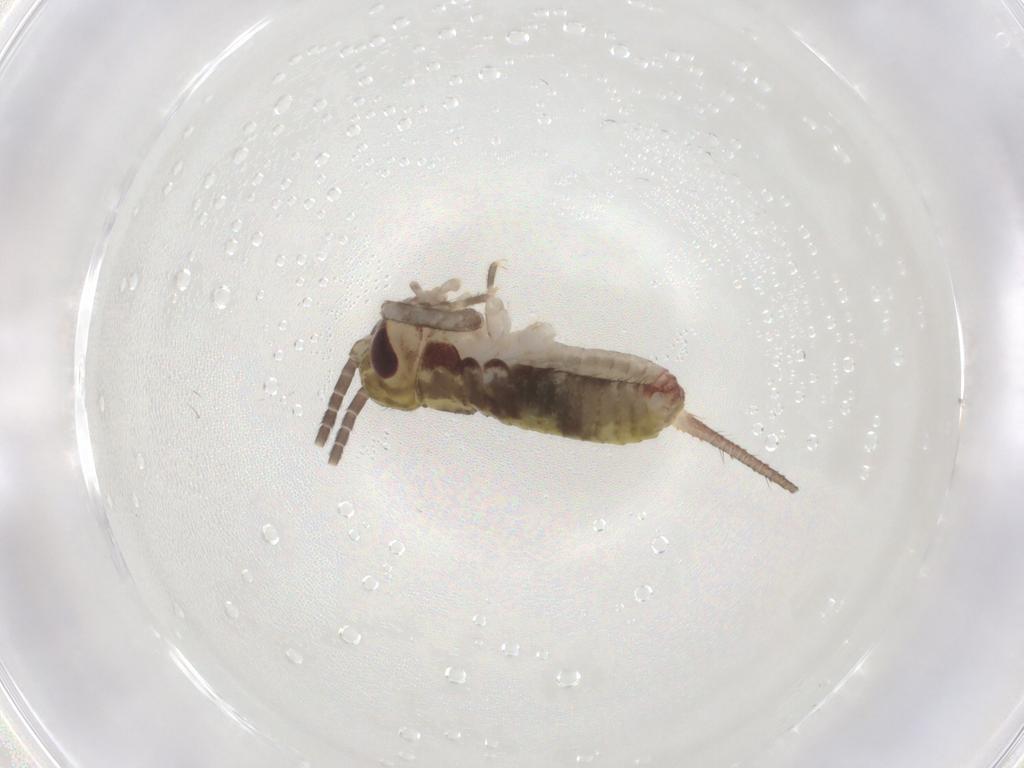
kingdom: Animalia
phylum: Arthropoda
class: Insecta
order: Orthoptera
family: Gryllidae
